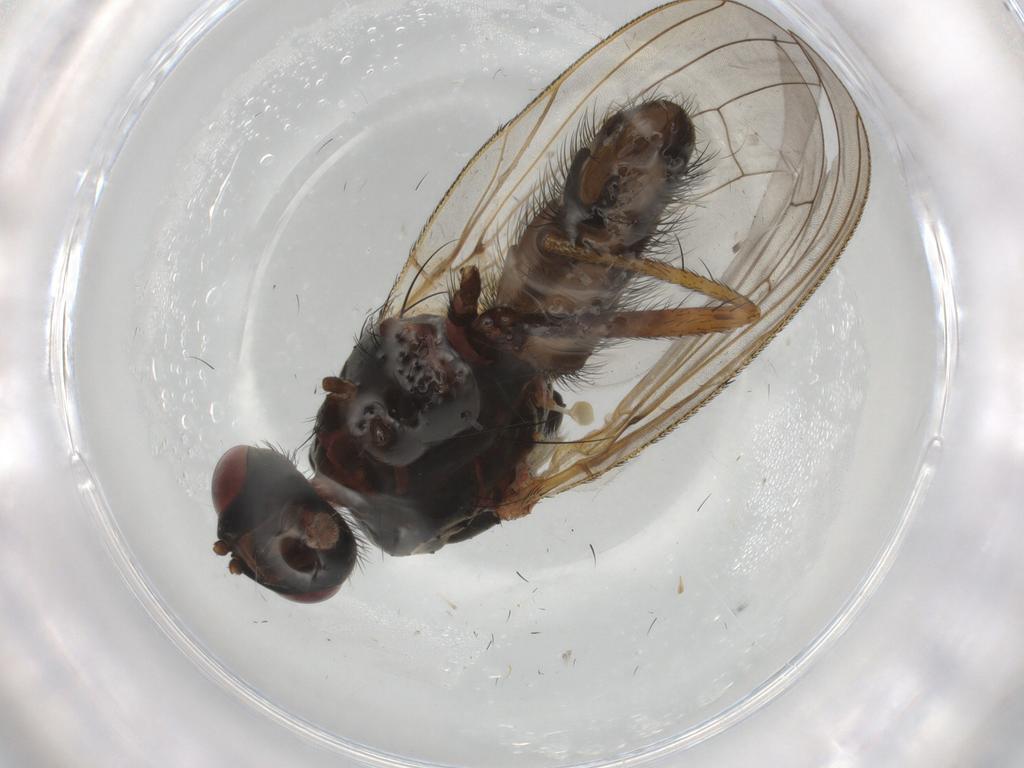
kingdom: Animalia
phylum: Arthropoda
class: Insecta
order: Diptera
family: Anthomyiidae
